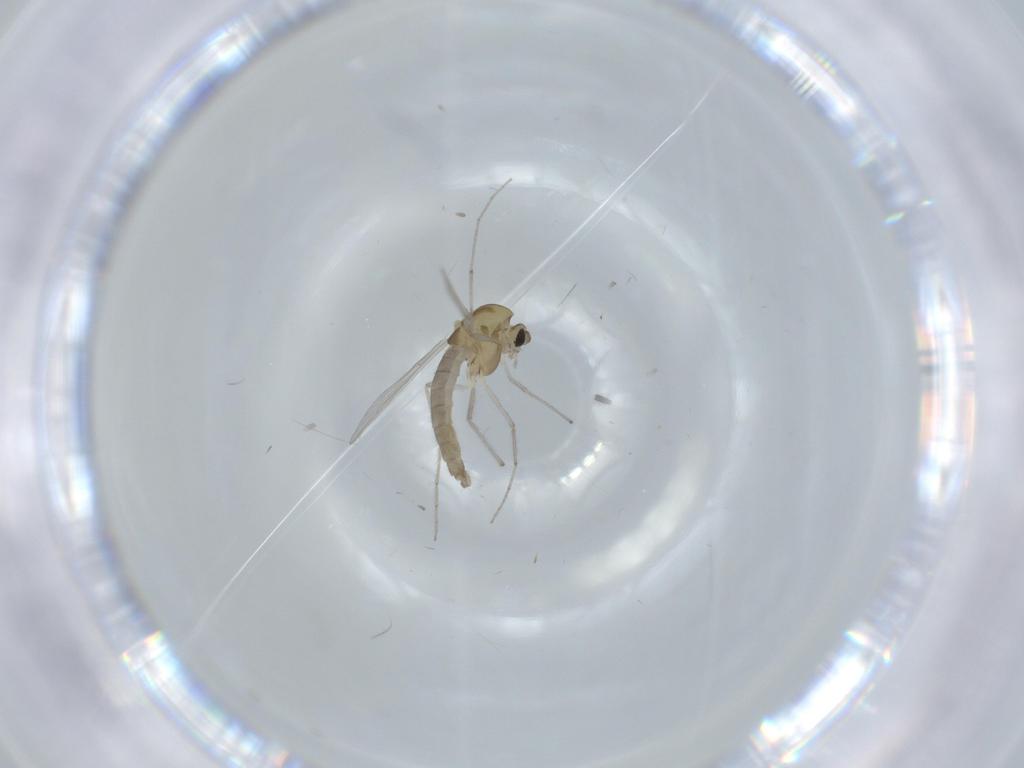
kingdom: Animalia
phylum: Arthropoda
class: Insecta
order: Diptera
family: Chironomidae
